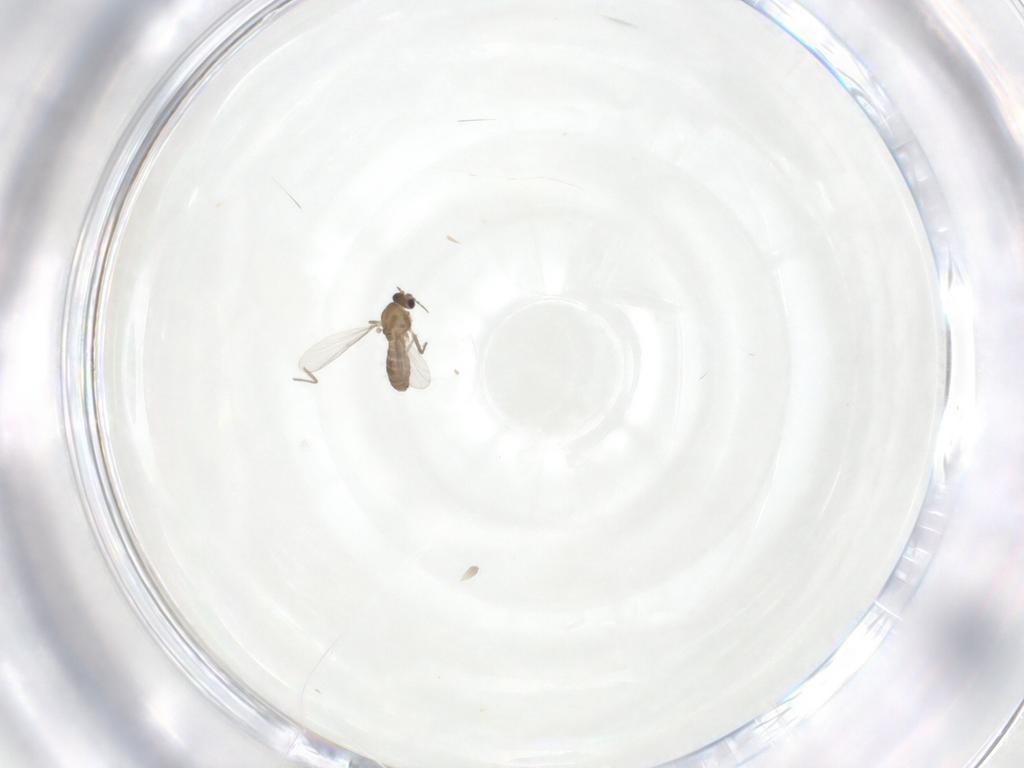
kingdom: Animalia
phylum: Arthropoda
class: Insecta
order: Diptera
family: Chironomidae
